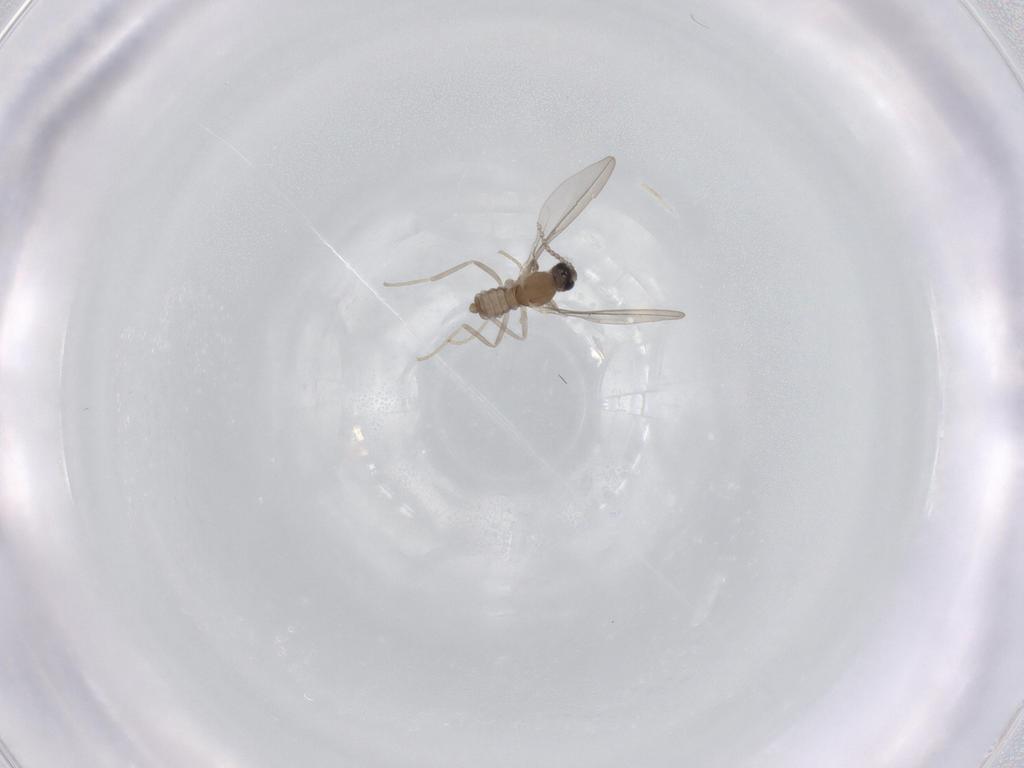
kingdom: Animalia
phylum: Arthropoda
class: Insecta
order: Diptera
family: Cecidomyiidae
